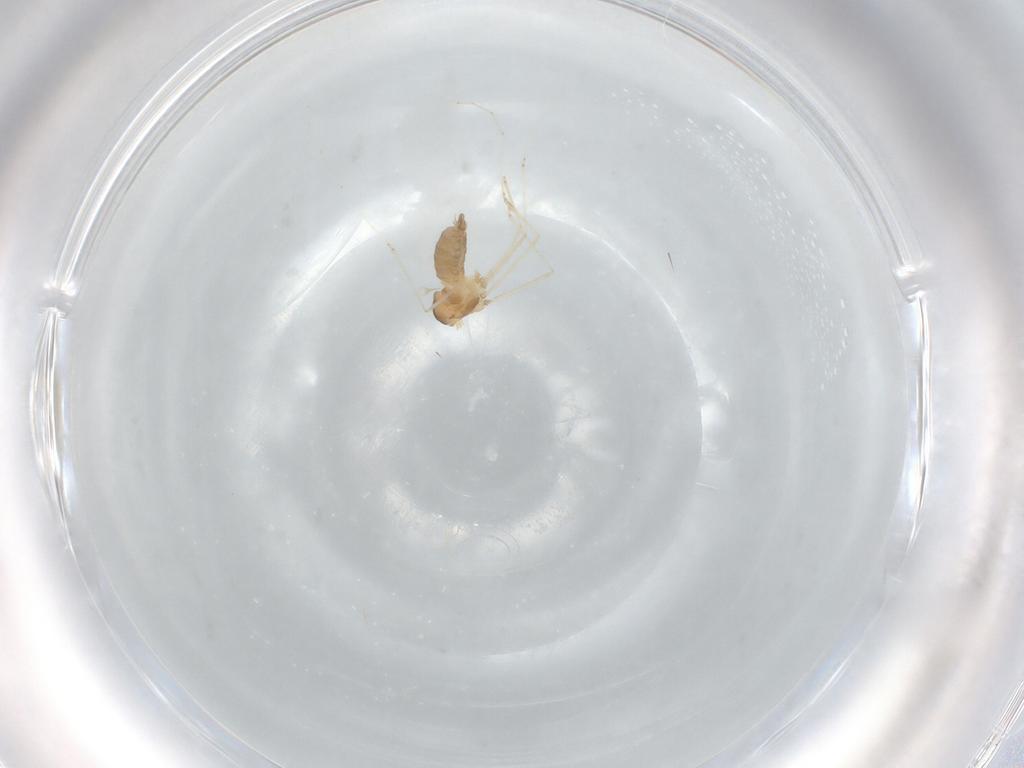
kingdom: Animalia
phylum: Arthropoda
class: Insecta
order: Diptera
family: Cecidomyiidae
